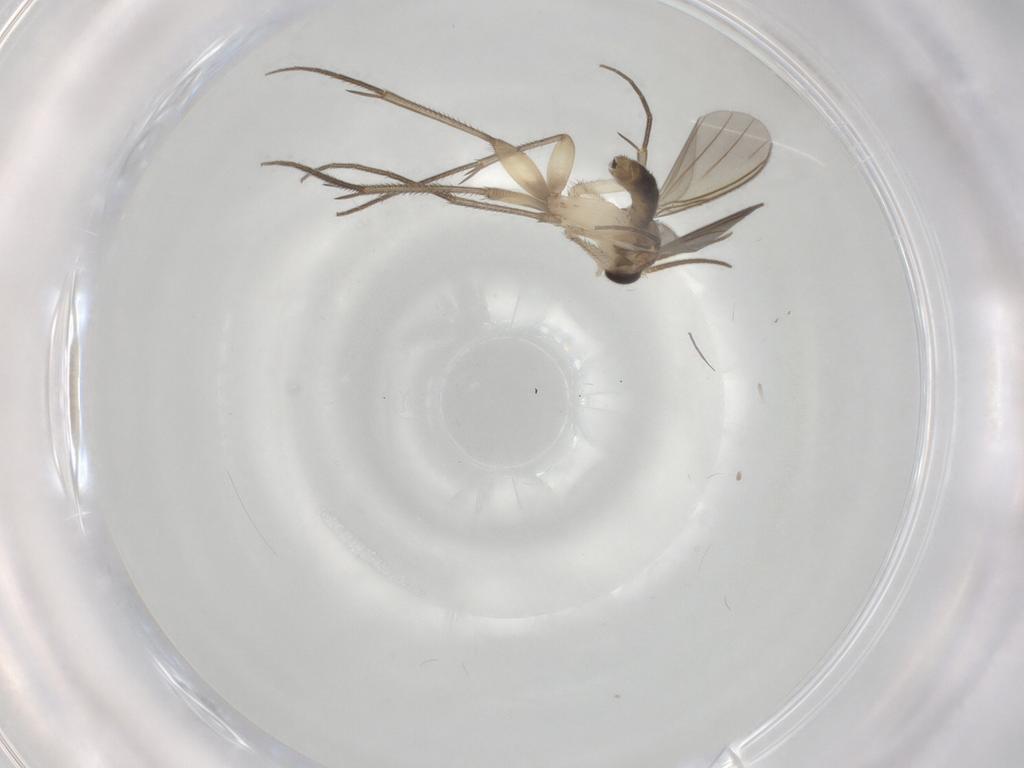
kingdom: Animalia
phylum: Arthropoda
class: Insecta
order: Diptera
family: Mycetophilidae
